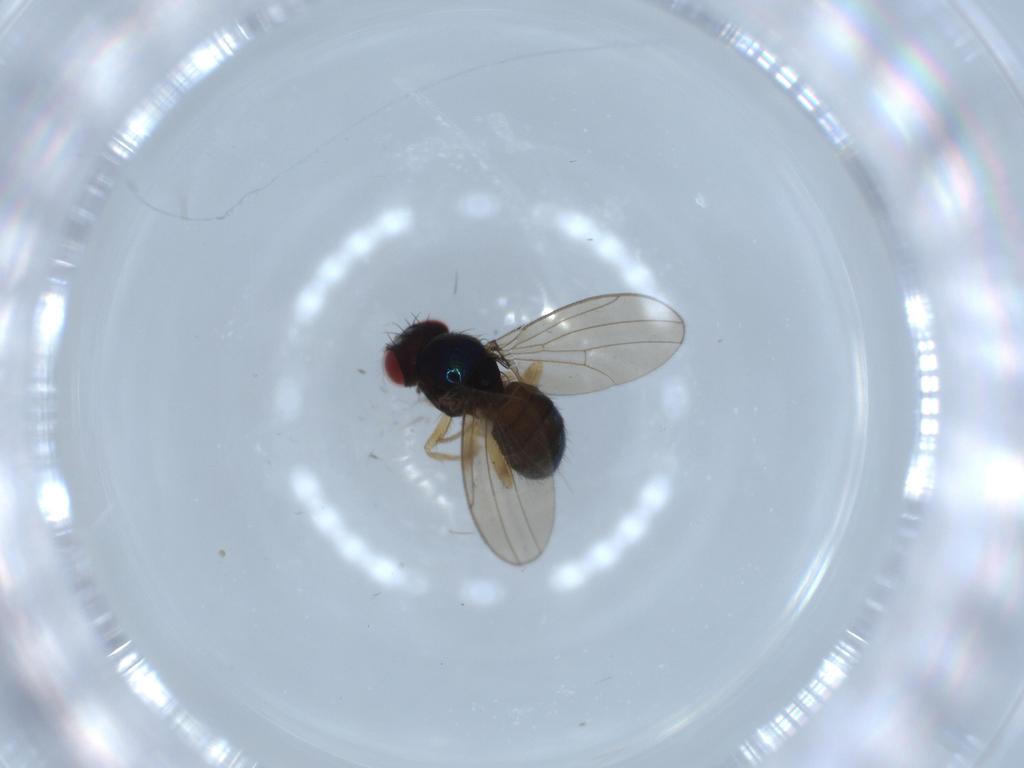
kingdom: Animalia
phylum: Arthropoda
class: Insecta
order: Diptera
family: Drosophilidae
